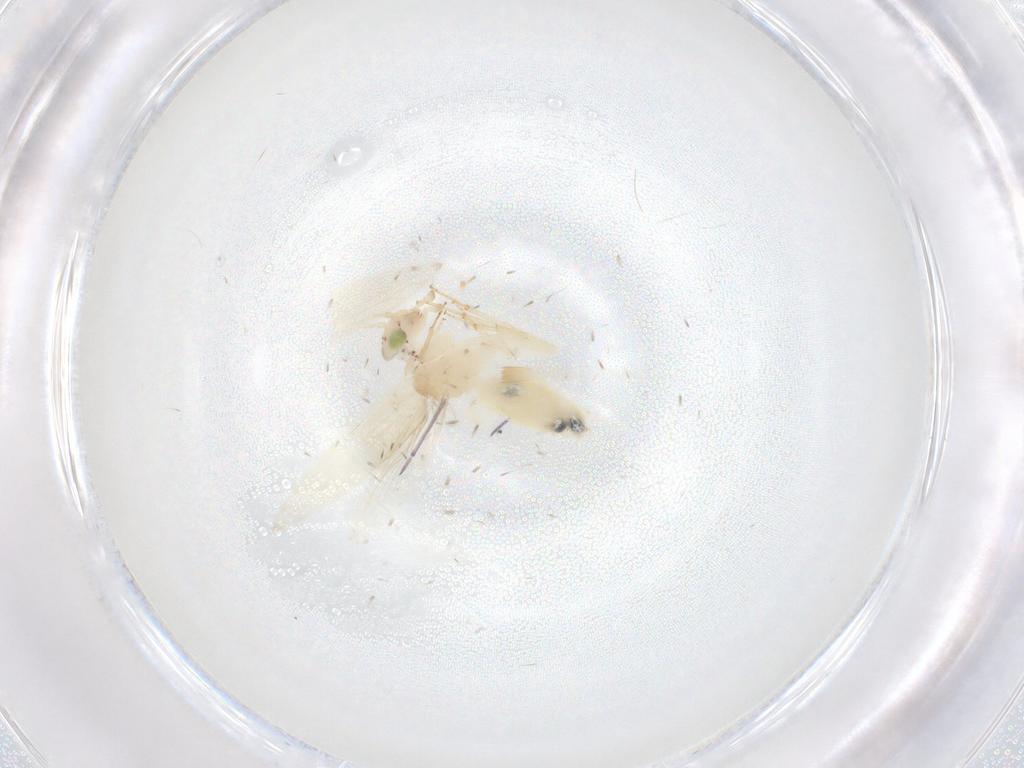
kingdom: Animalia
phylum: Arthropoda
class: Insecta
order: Psocodea
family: Lepidopsocidae
